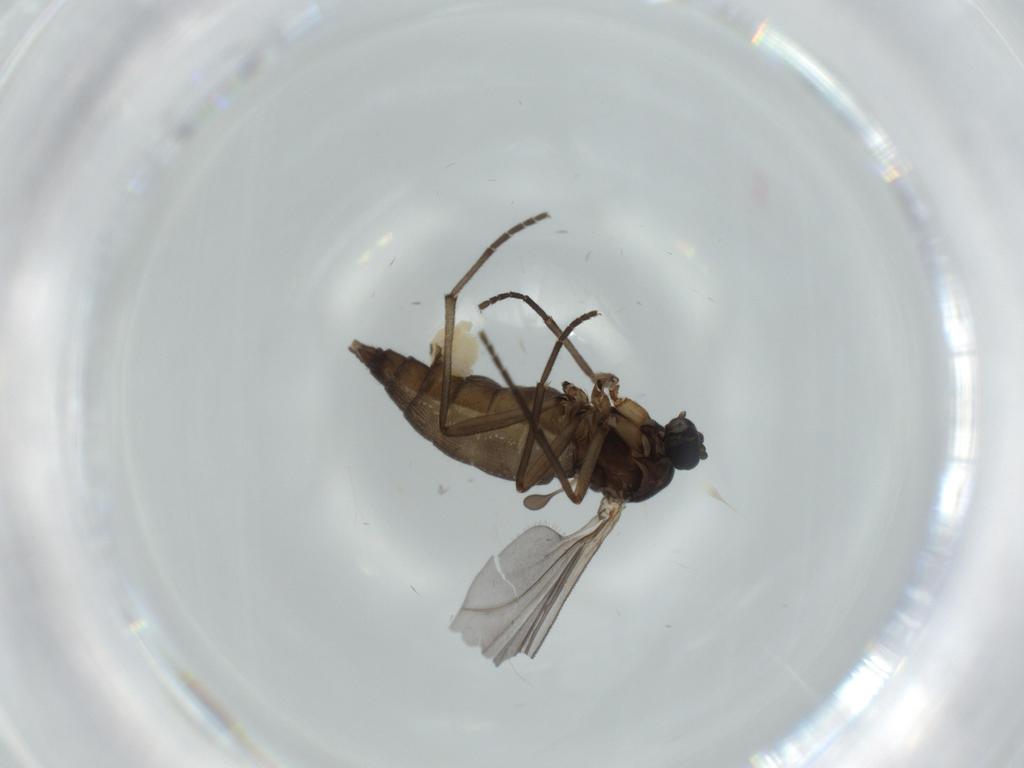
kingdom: Animalia
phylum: Arthropoda
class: Insecta
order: Diptera
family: Sciaridae
